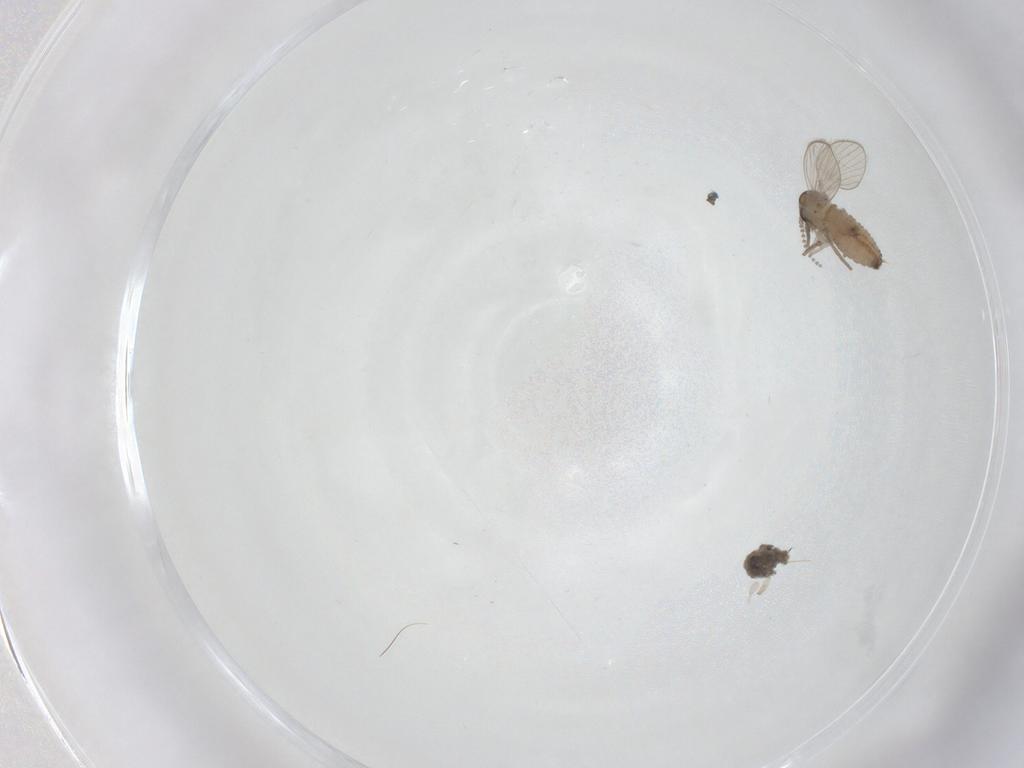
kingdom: Animalia
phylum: Arthropoda
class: Insecta
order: Diptera
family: Psychodidae
